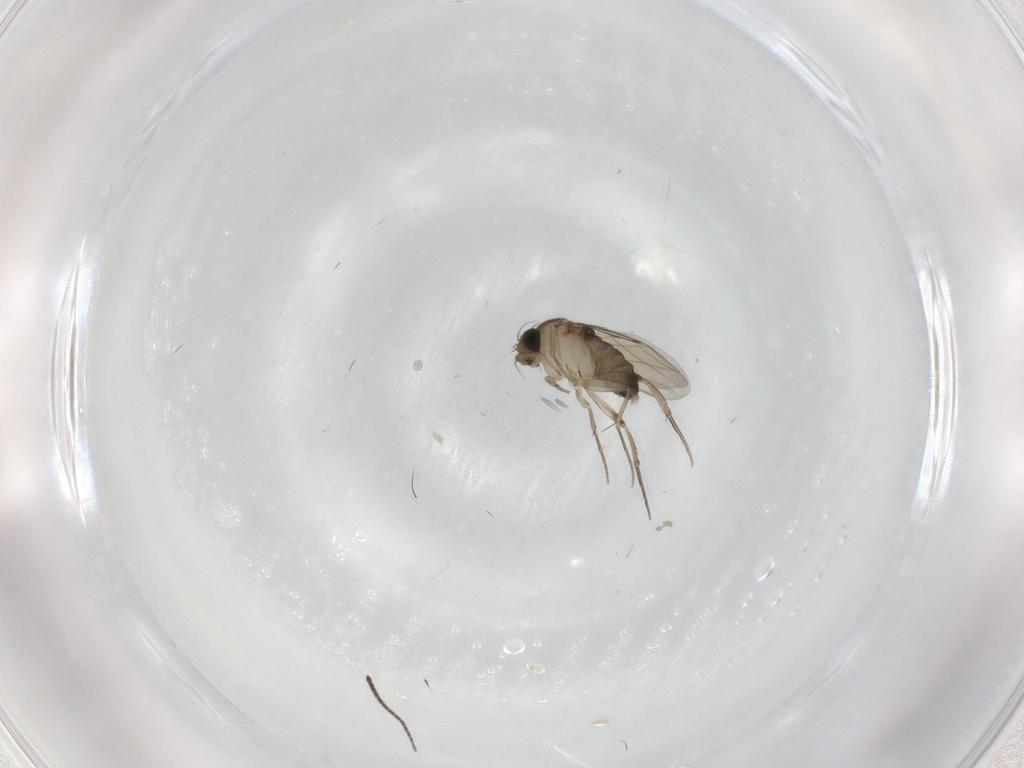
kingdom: Animalia
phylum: Arthropoda
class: Insecta
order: Diptera
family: Phoridae
